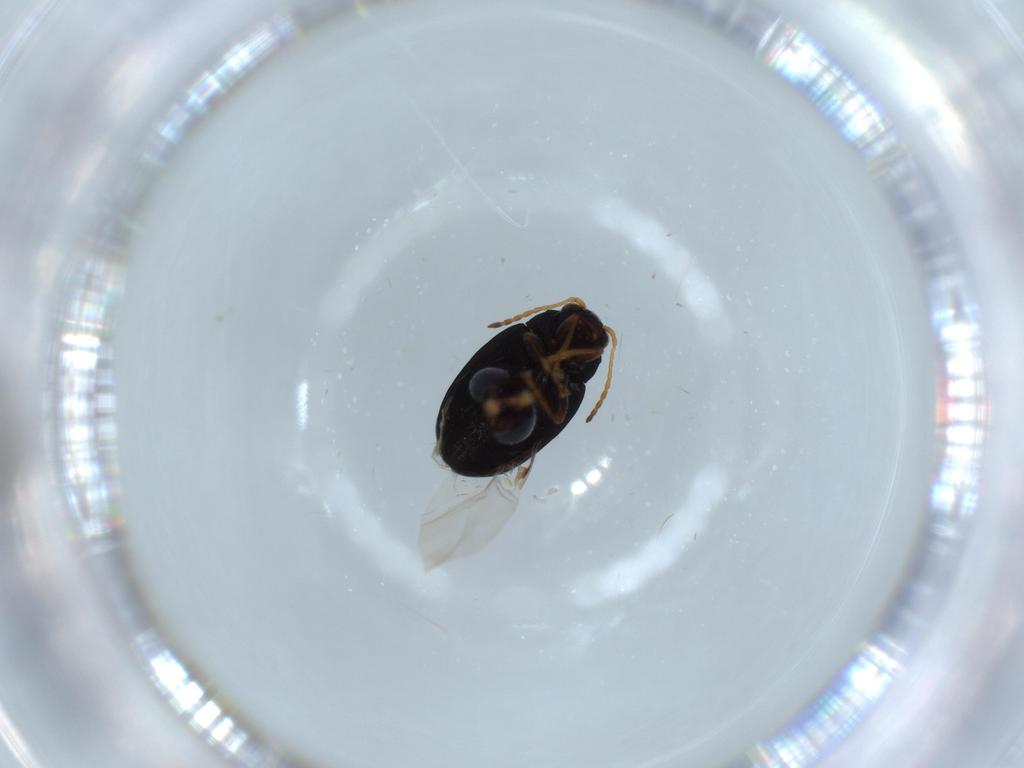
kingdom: Animalia
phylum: Arthropoda
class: Insecta
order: Coleoptera
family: Chrysomelidae
